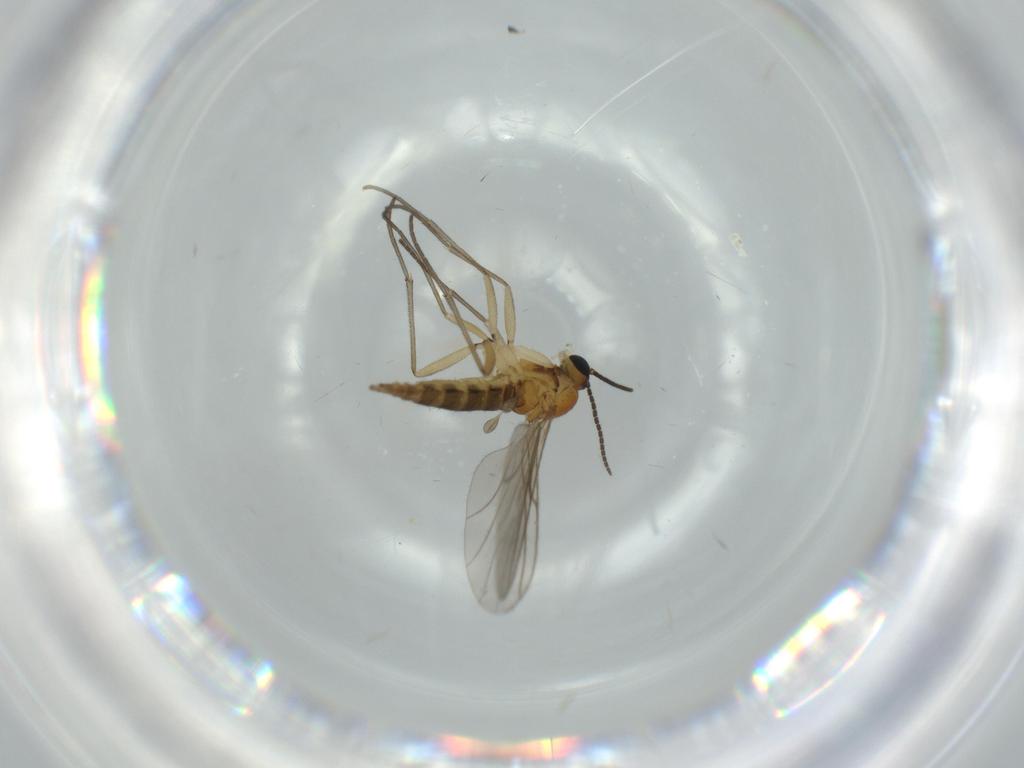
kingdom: Animalia
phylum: Arthropoda
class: Insecta
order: Diptera
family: Sciaridae
